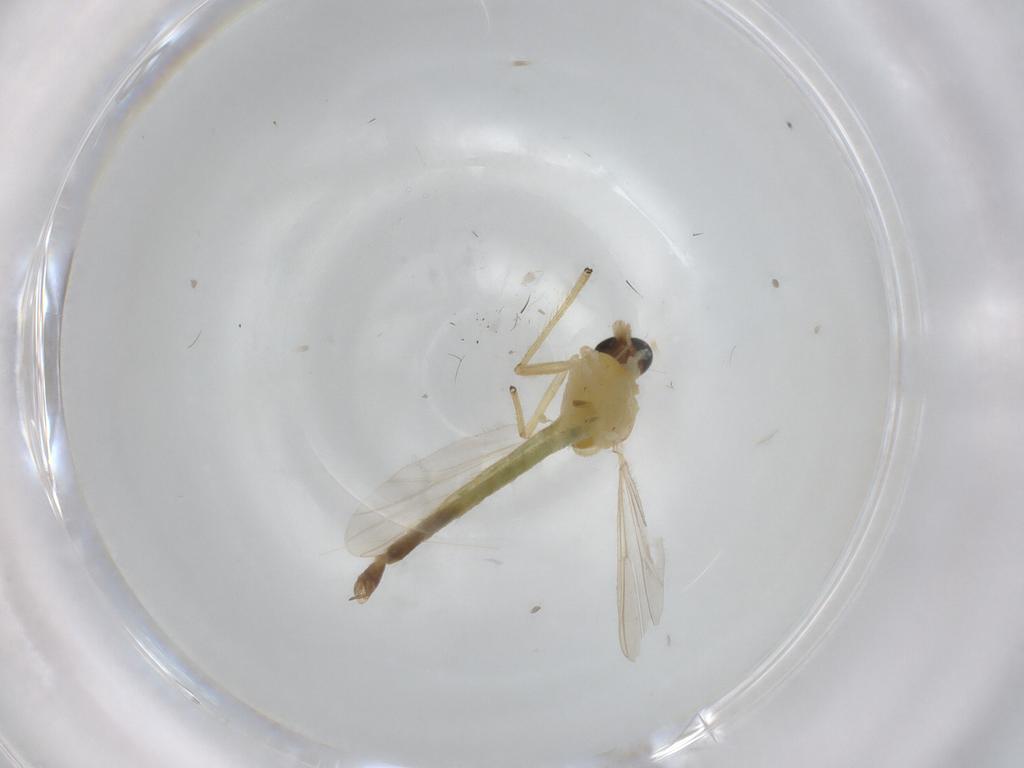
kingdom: Animalia
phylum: Arthropoda
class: Insecta
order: Diptera
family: Chironomidae
